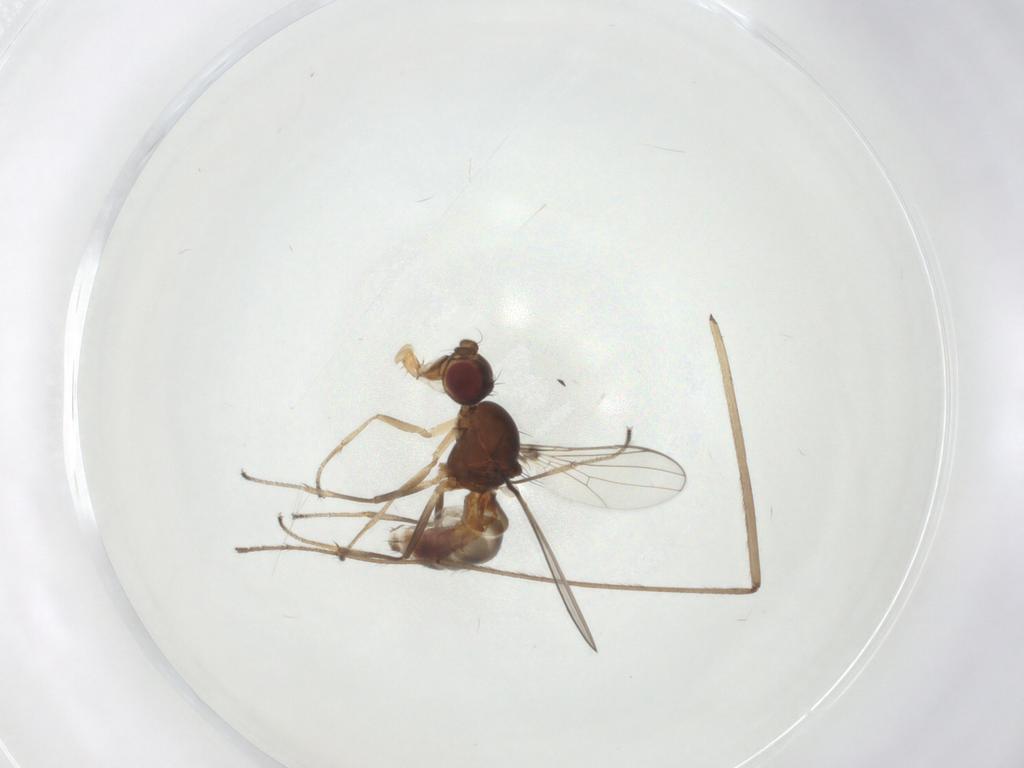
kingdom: Animalia
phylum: Arthropoda
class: Insecta
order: Diptera
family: Sepsidae
